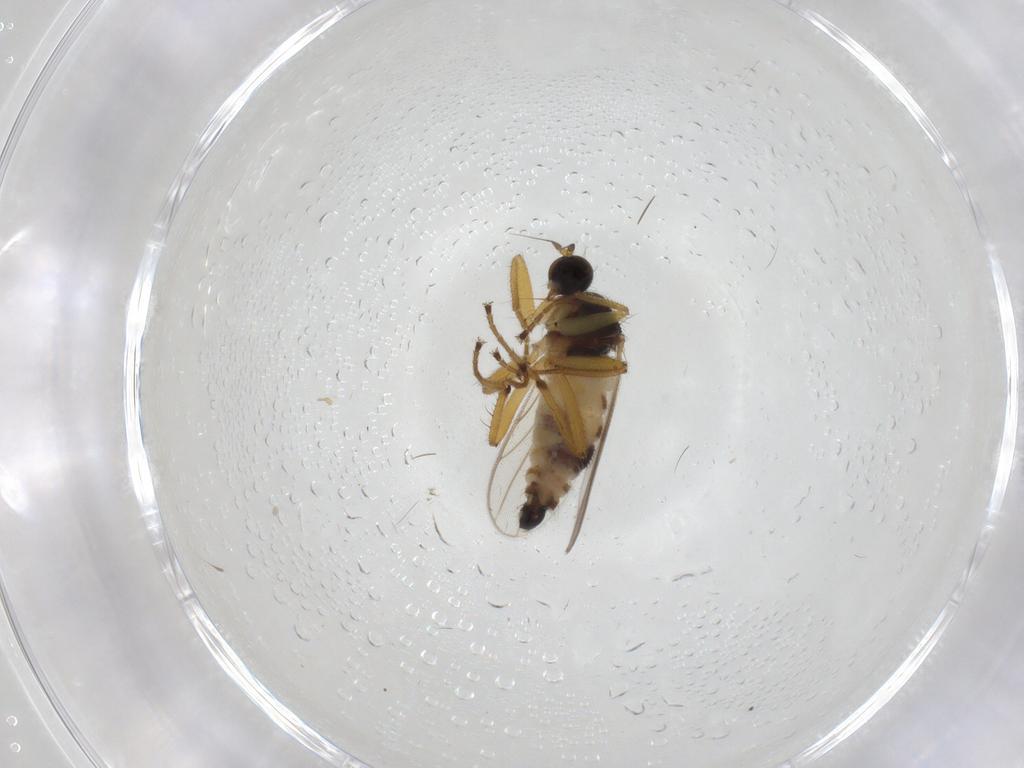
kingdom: Animalia
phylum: Arthropoda
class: Insecta
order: Diptera
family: Hybotidae
